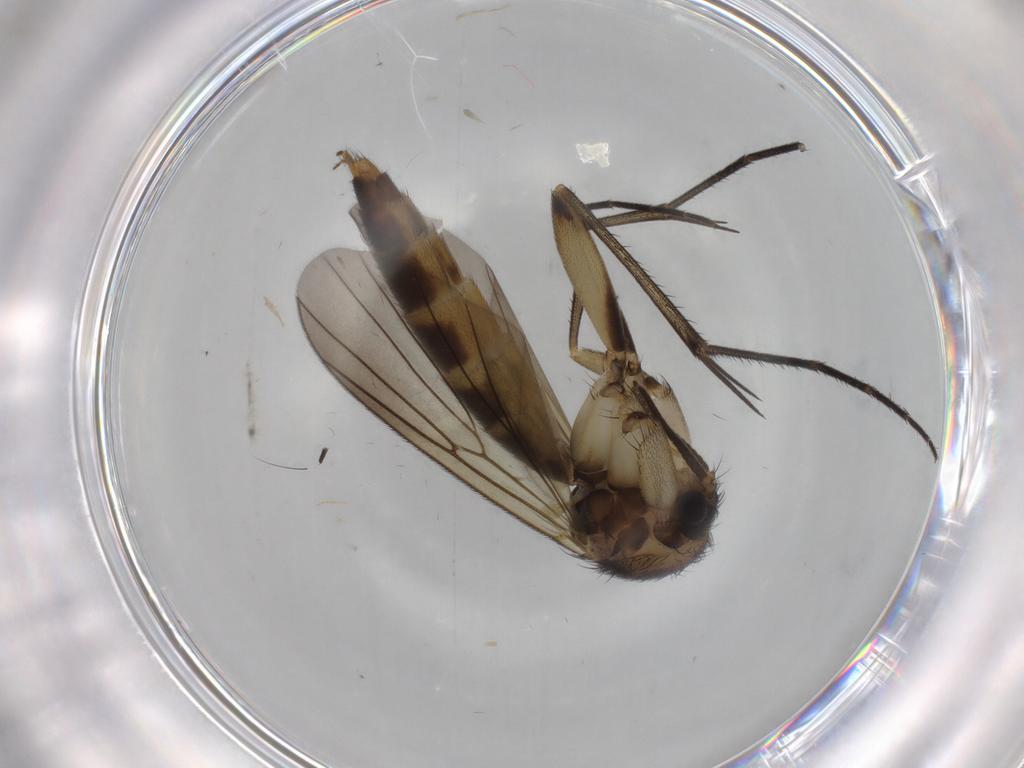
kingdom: Animalia
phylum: Arthropoda
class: Insecta
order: Diptera
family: Mycetophilidae
